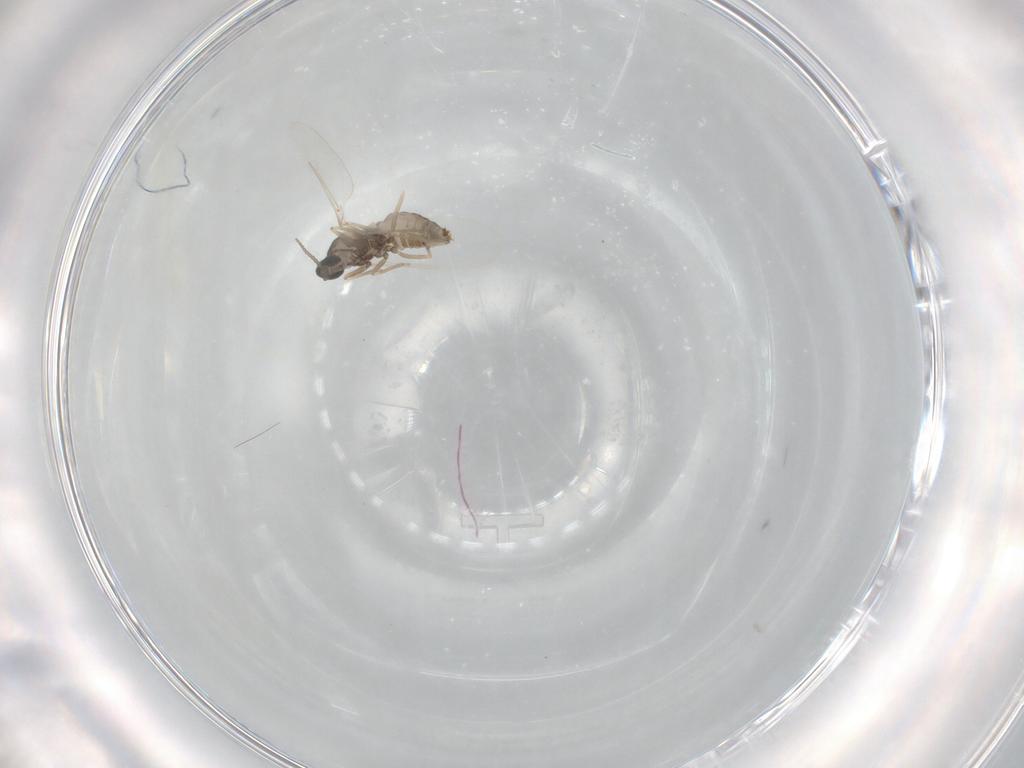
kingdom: Animalia
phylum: Arthropoda
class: Insecta
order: Diptera
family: Cecidomyiidae
